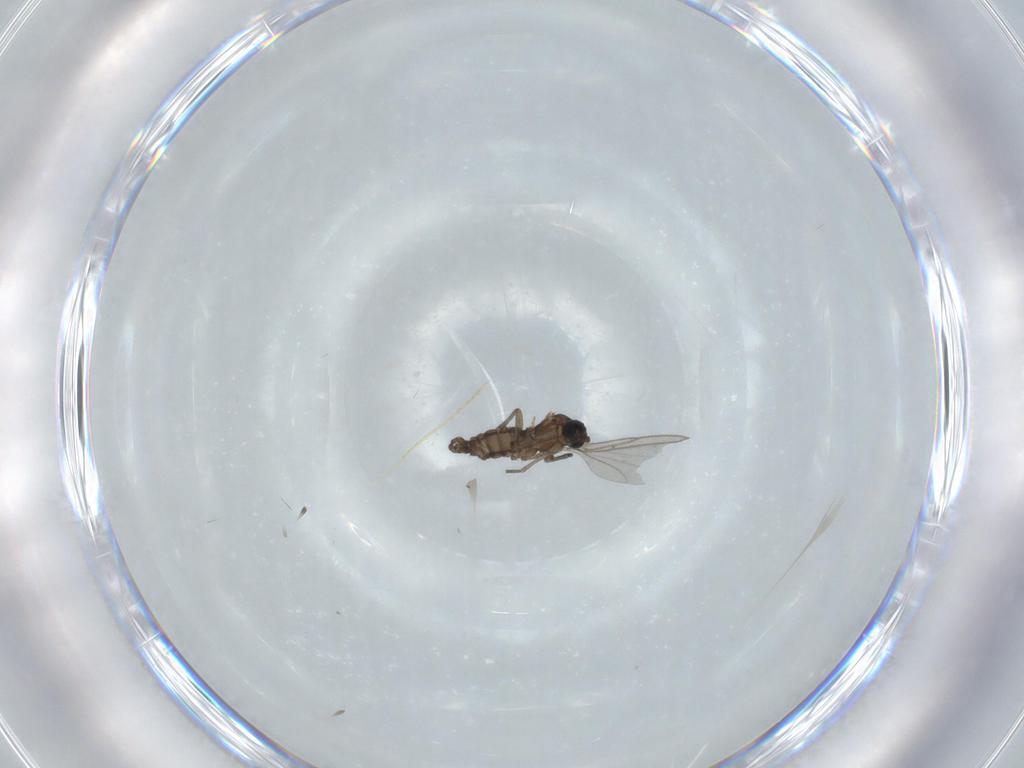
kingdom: Animalia
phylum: Arthropoda
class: Insecta
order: Diptera
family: Sciaridae
